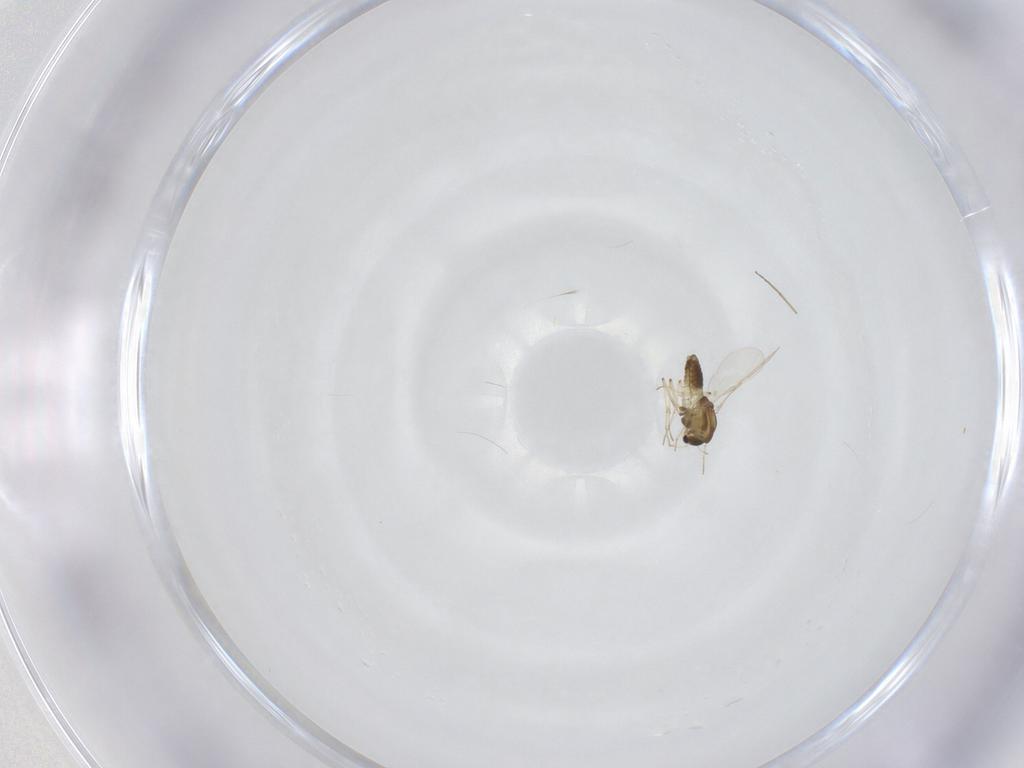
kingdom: Animalia
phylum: Arthropoda
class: Insecta
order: Diptera
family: Chironomidae
